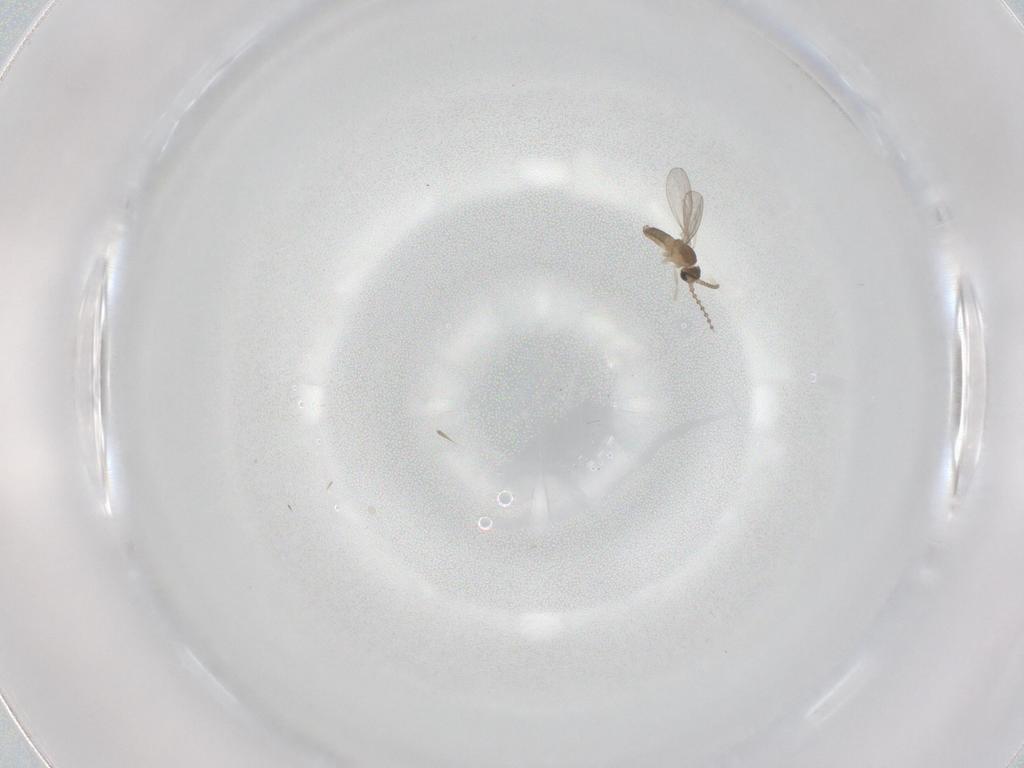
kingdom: Animalia
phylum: Arthropoda
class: Insecta
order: Diptera
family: Cecidomyiidae
